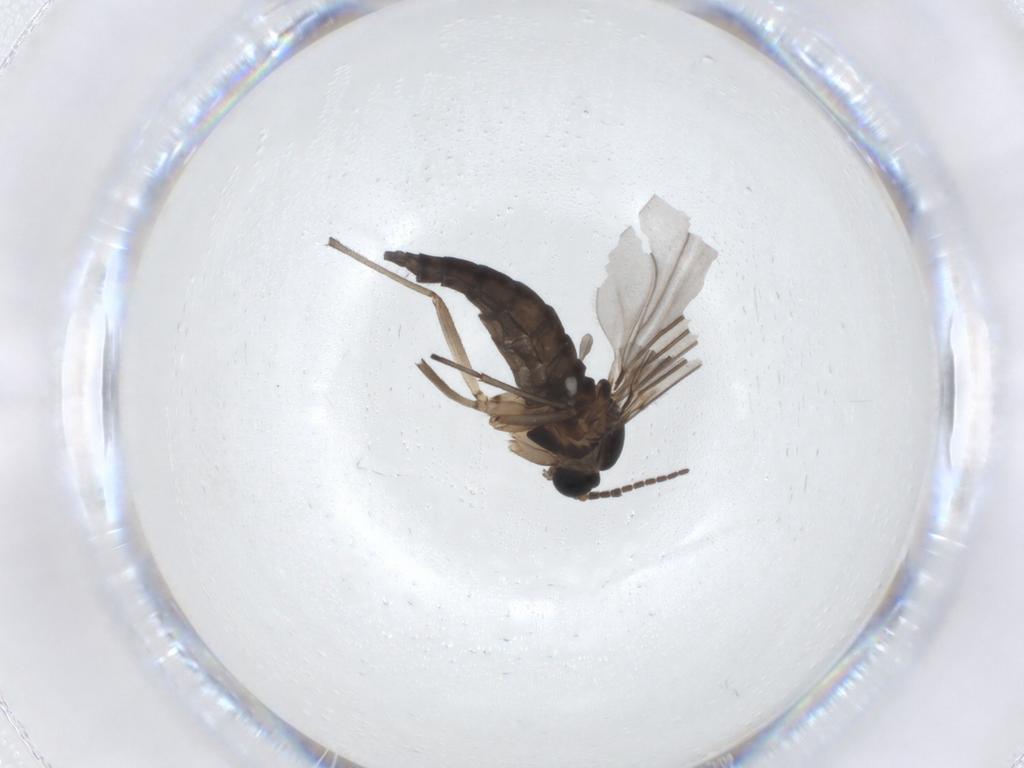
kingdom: Animalia
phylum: Arthropoda
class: Insecta
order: Diptera
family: Sciaridae
